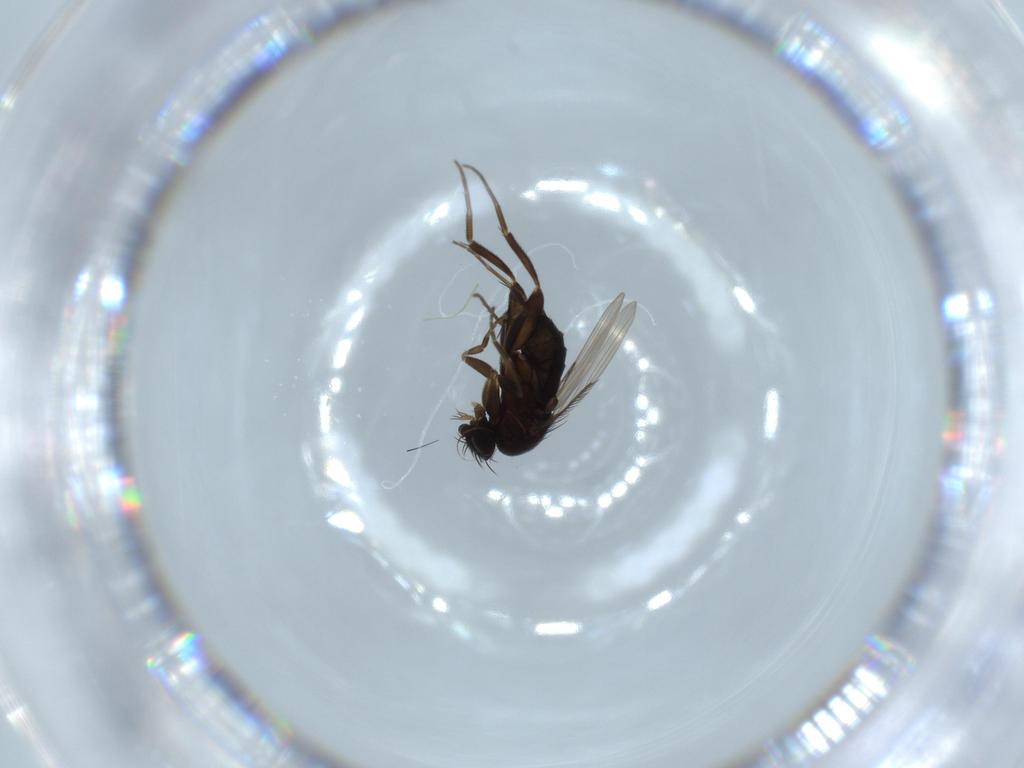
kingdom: Animalia
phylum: Arthropoda
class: Insecta
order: Diptera
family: Phoridae
